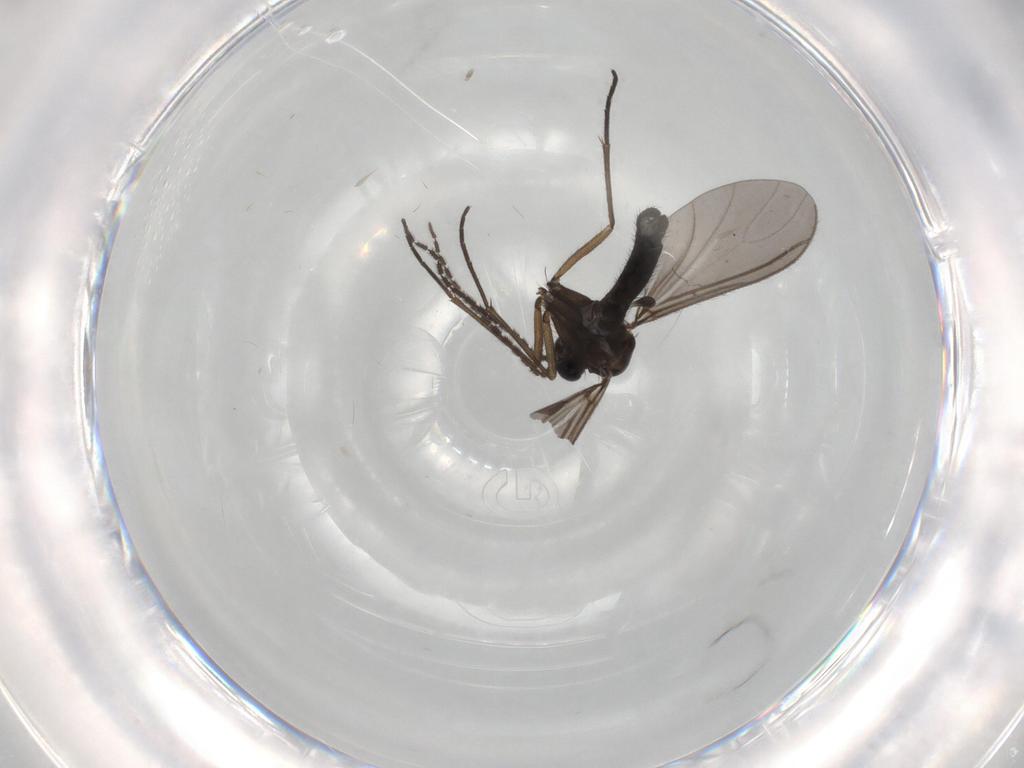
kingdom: Animalia
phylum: Arthropoda
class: Insecta
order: Diptera
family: Sciaridae
